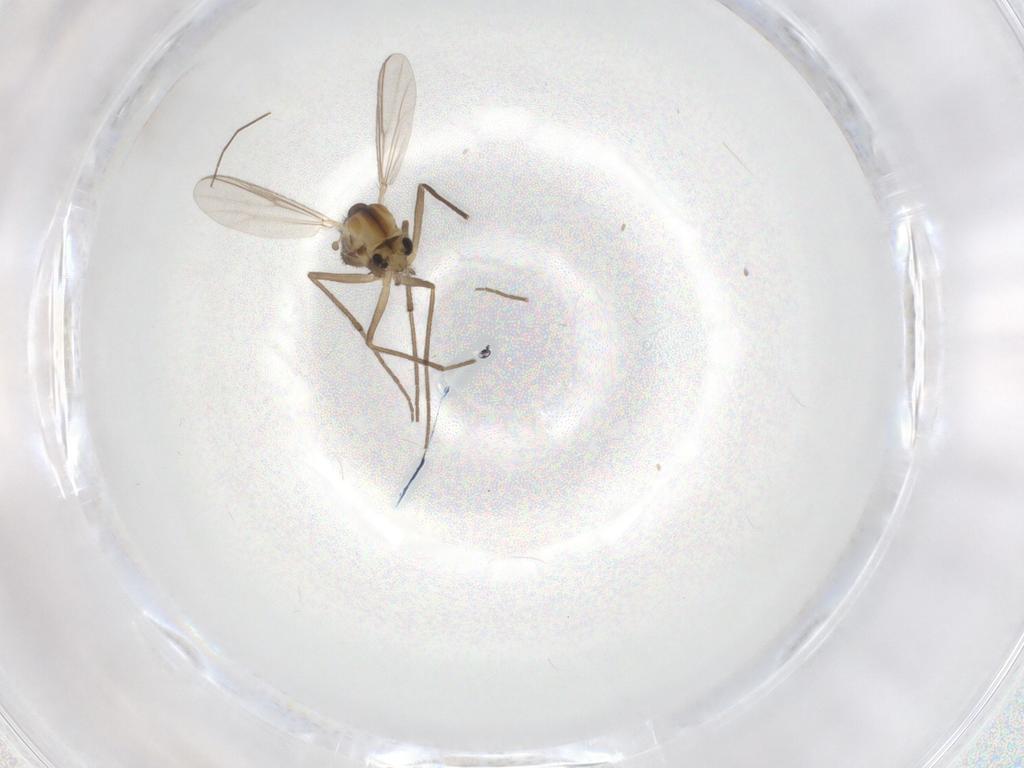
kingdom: Animalia
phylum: Arthropoda
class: Insecta
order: Diptera
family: Chironomidae
